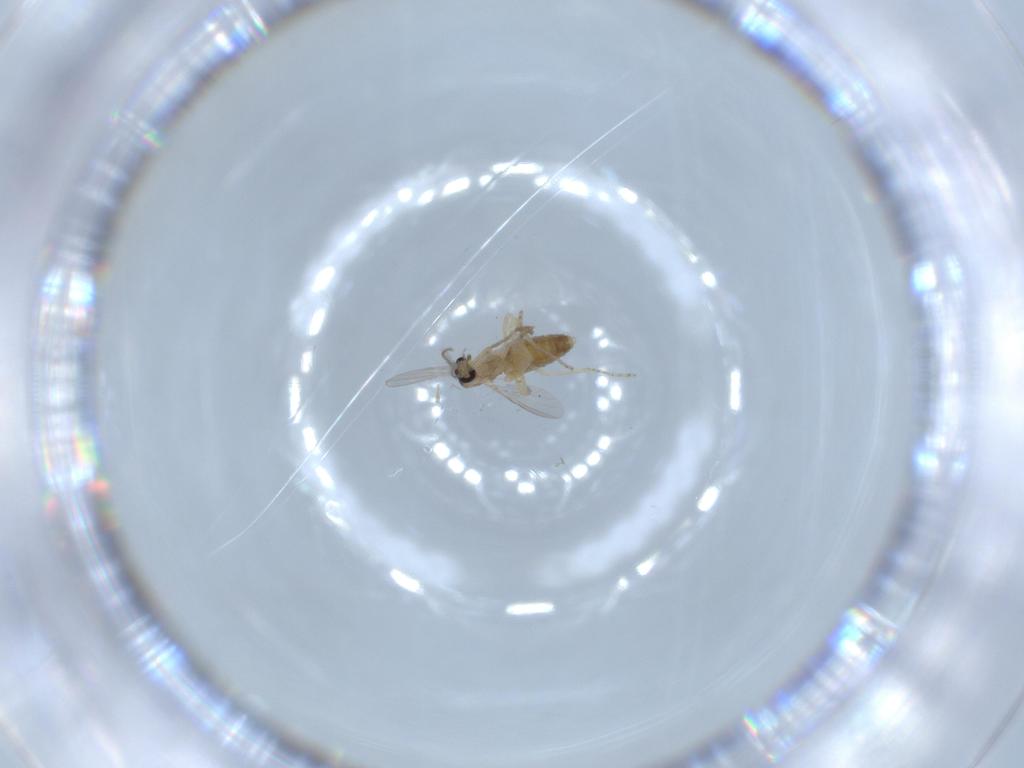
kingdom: Animalia
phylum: Arthropoda
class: Insecta
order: Diptera
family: Ceratopogonidae
